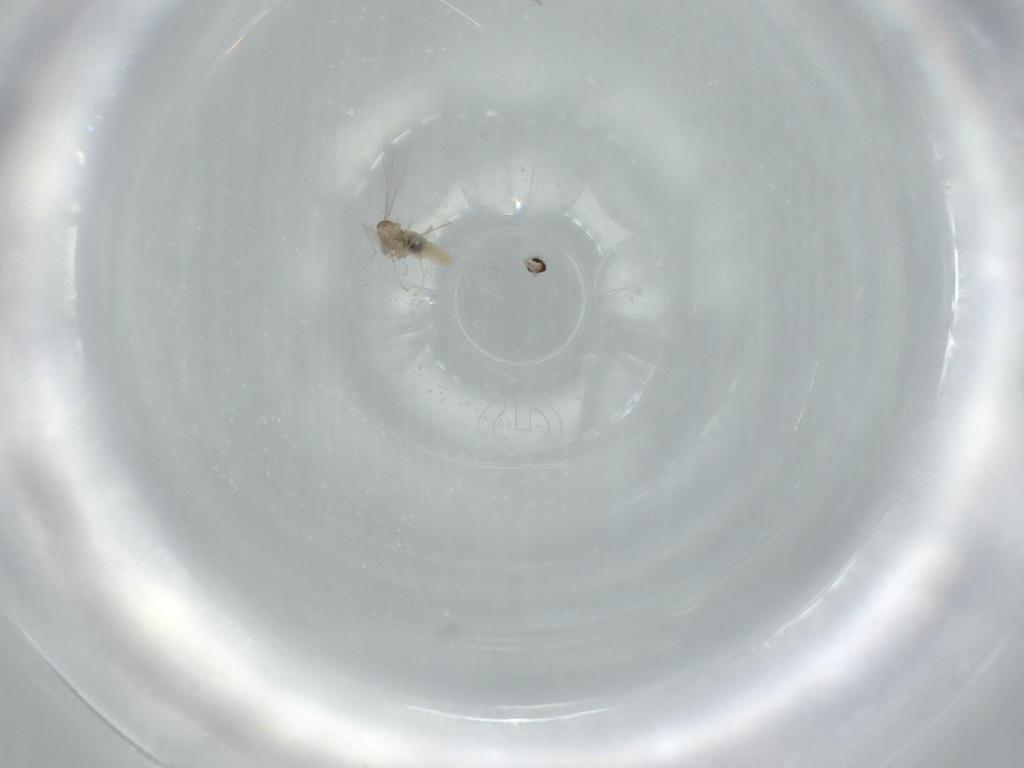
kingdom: Animalia
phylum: Arthropoda
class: Insecta
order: Diptera
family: Cecidomyiidae
